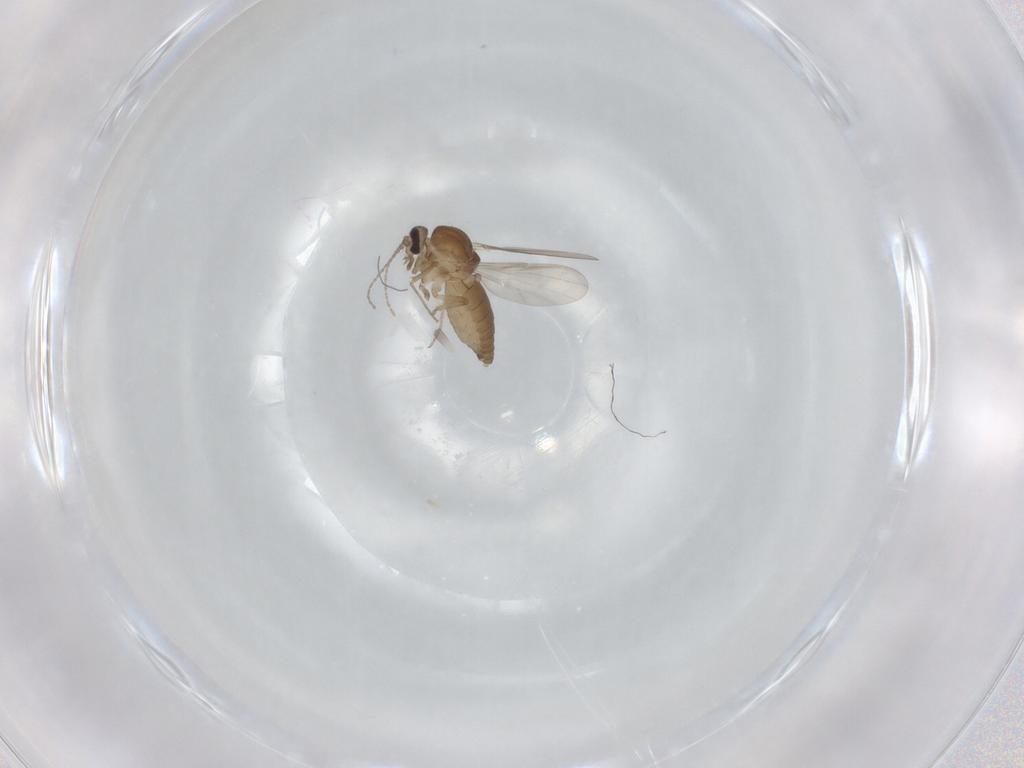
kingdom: Animalia
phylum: Arthropoda
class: Insecta
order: Diptera
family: Ceratopogonidae
